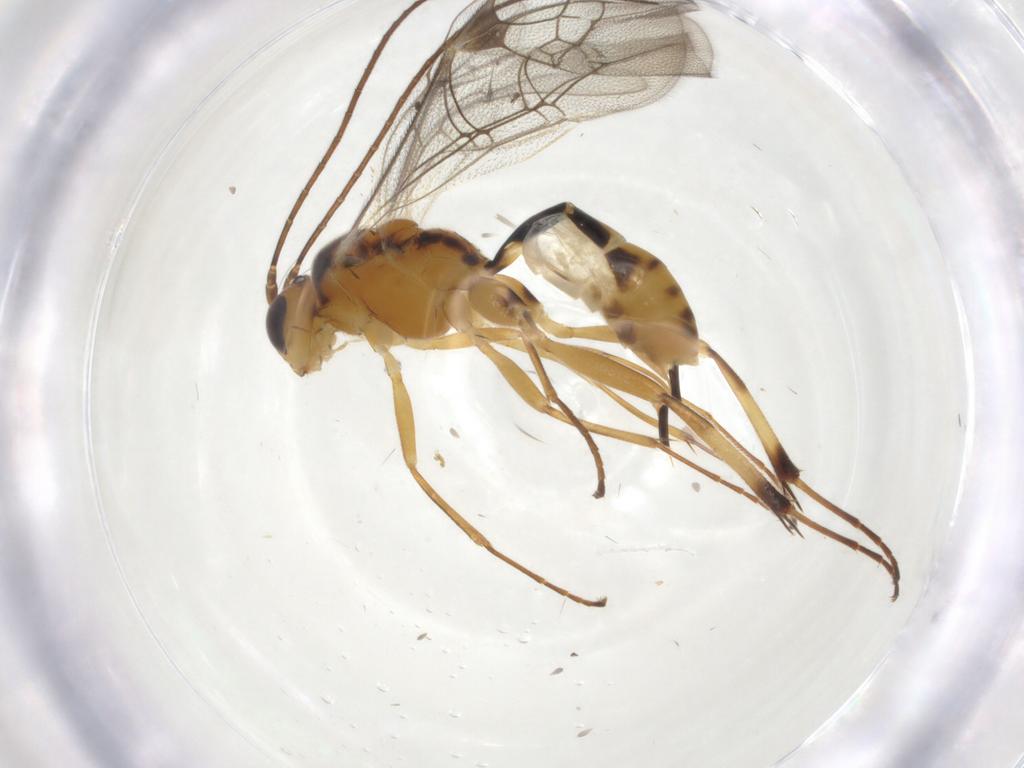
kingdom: Animalia
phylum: Arthropoda
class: Insecta
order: Hymenoptera
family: Ichneumonidae
